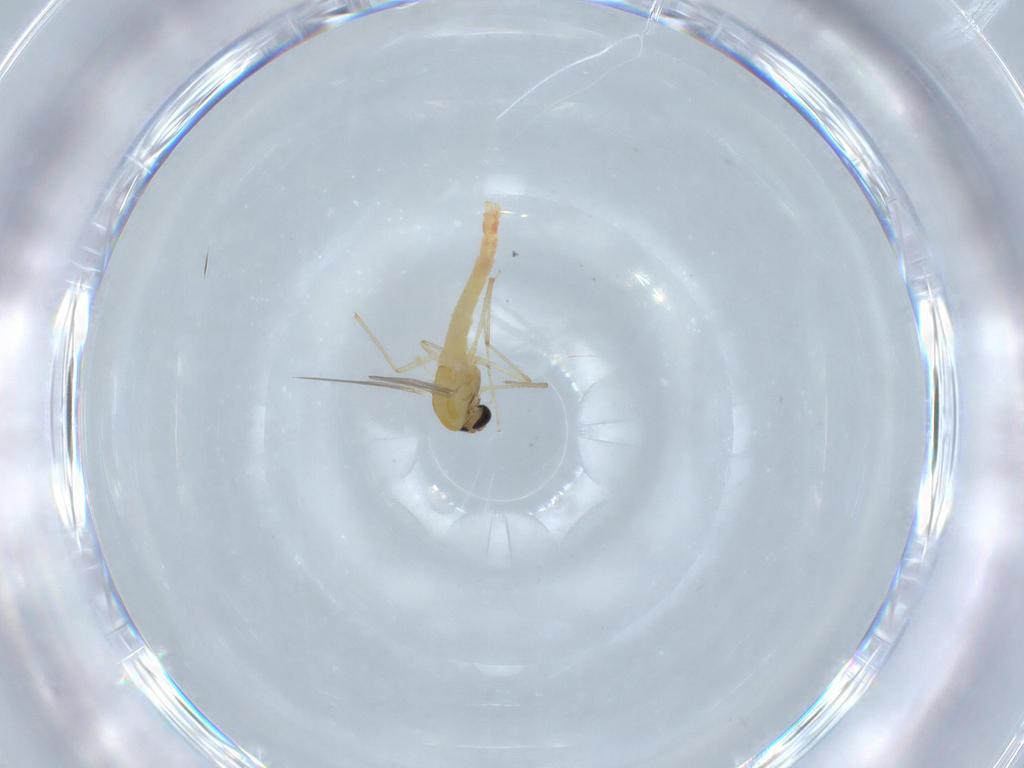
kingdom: Animalia
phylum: Arthropoda
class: Insecta
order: Diptera
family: Chironomidae
